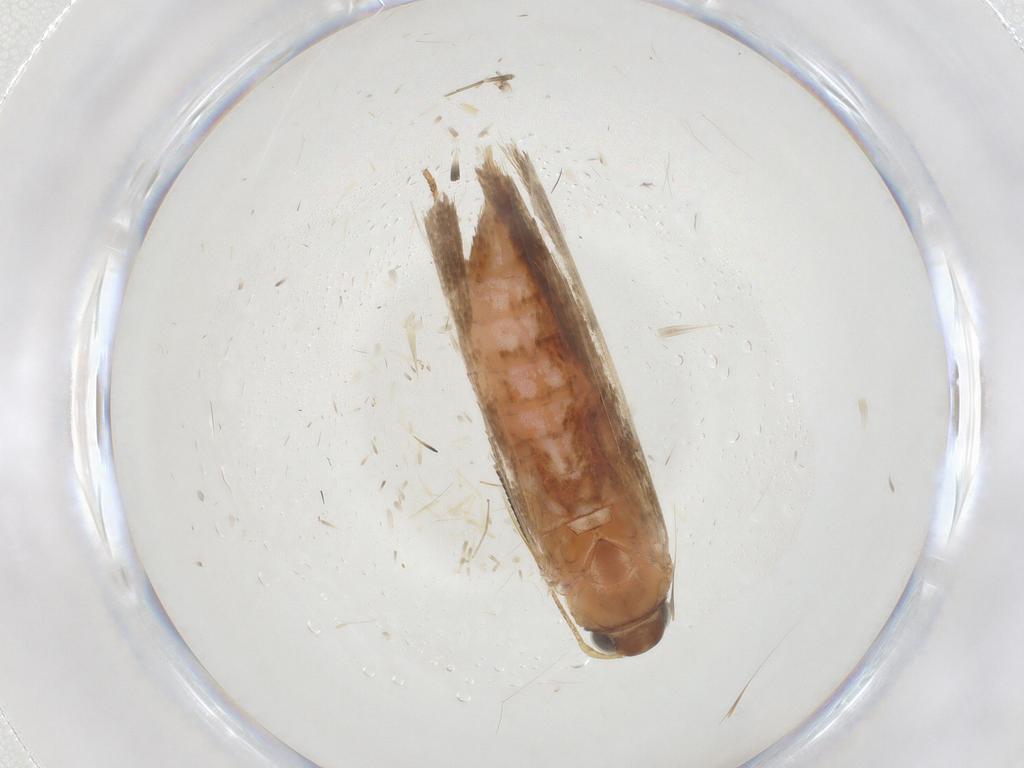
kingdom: Animalia
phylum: Arthropoda
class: Insecta
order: Lepidoptera
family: Gelechiidae
